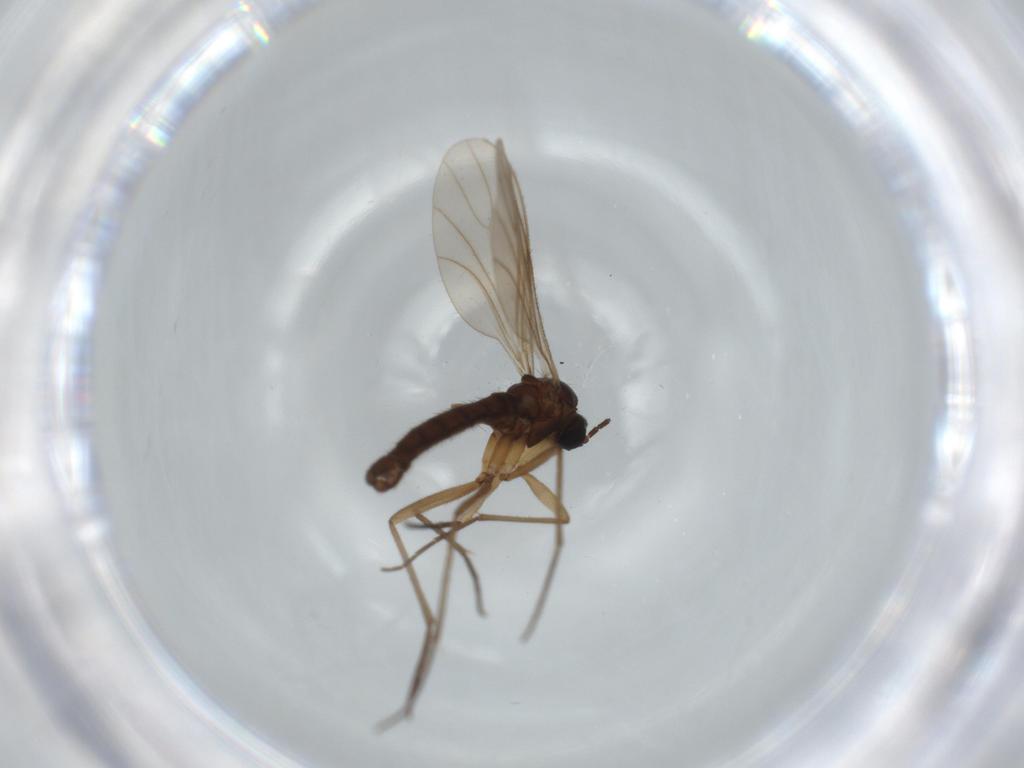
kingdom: Animalia
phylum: Arthropoda
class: Insecta
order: Diptera
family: Sciaridae
